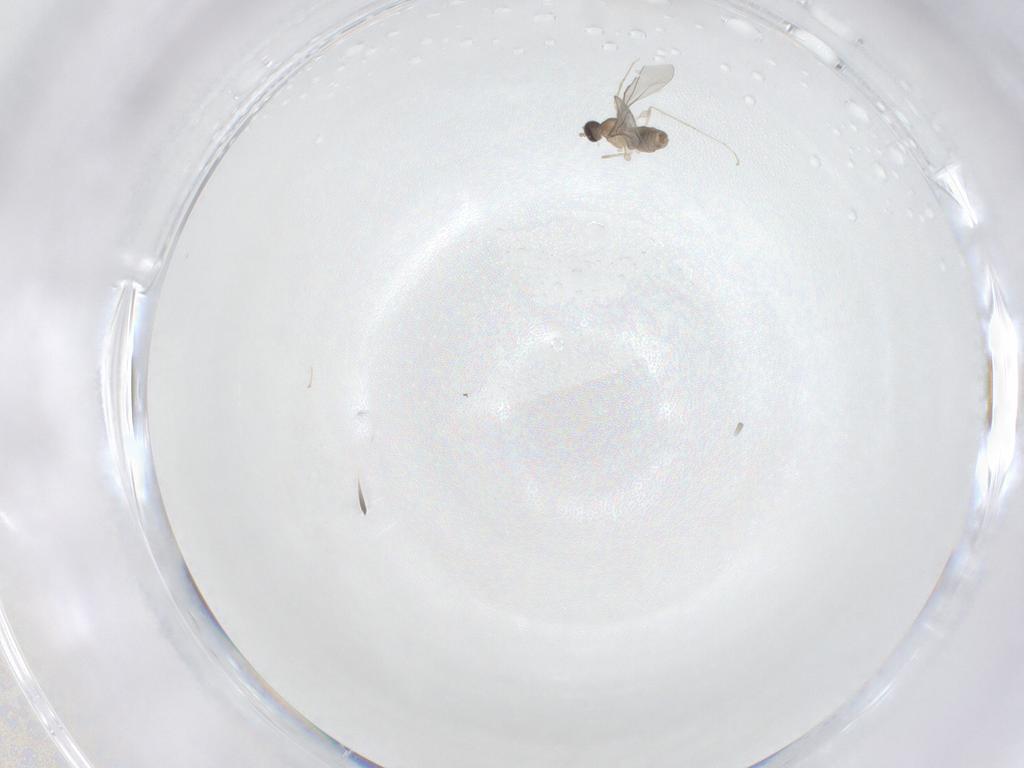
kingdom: Animalia
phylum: Arthropoda
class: Insecta
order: Diptera
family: Cecidomyiidae
